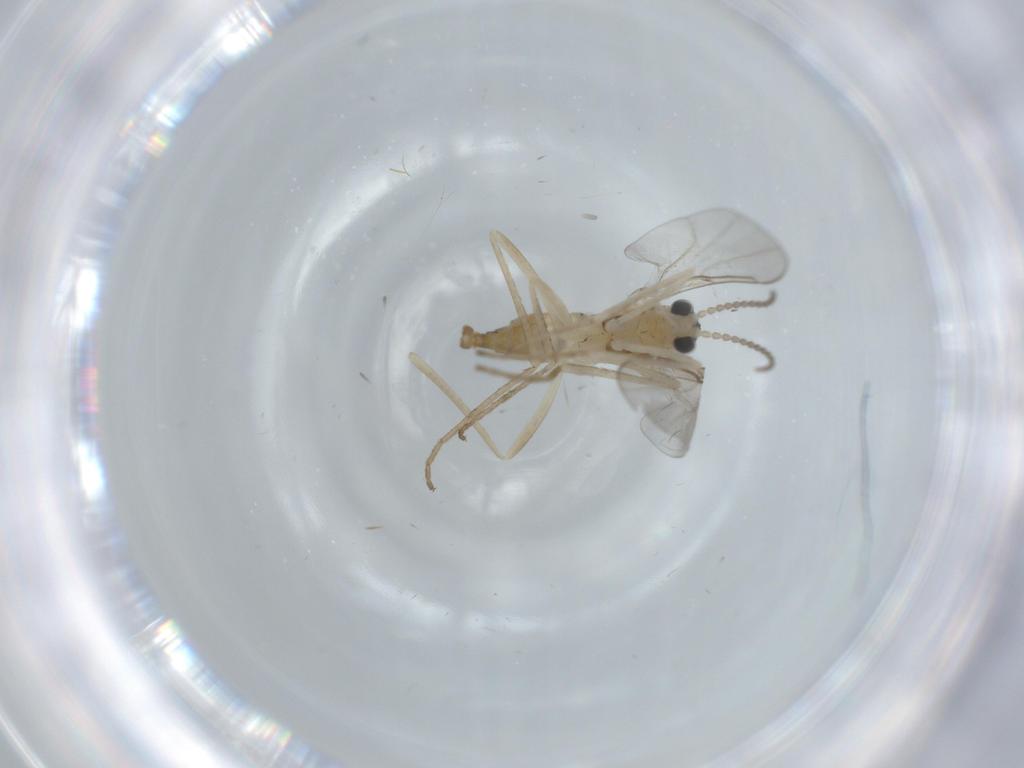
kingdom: Animalia
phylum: Arthropoda
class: Insecta
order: Diptera
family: Cecidomyiidae
